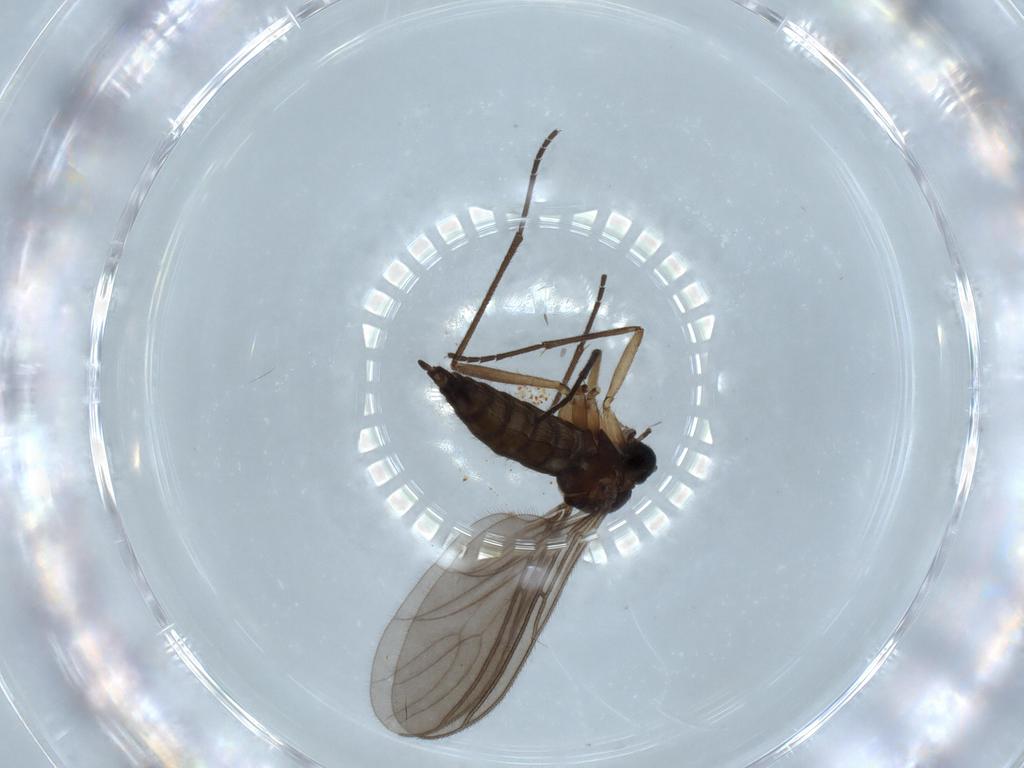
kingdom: Animalia
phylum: Arthropoda
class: Insecta
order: Diptera
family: Sciaridae
